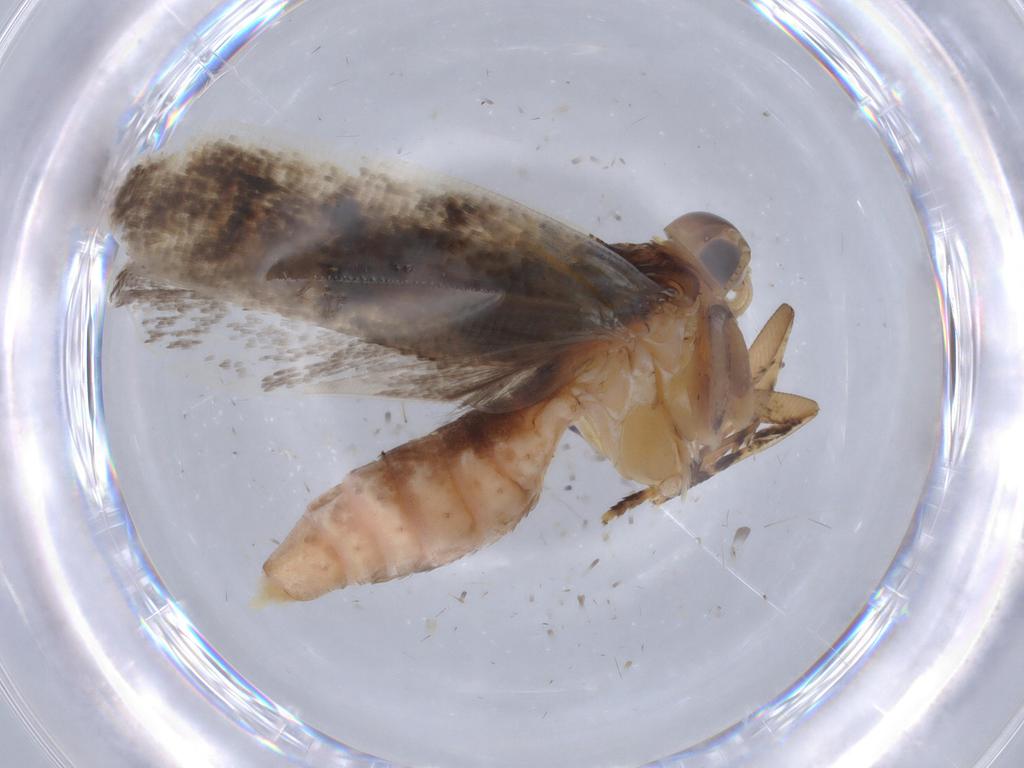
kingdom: Animalia
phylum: Arthropoda
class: Insecta
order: Lepidoptera
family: Gelechiidae
